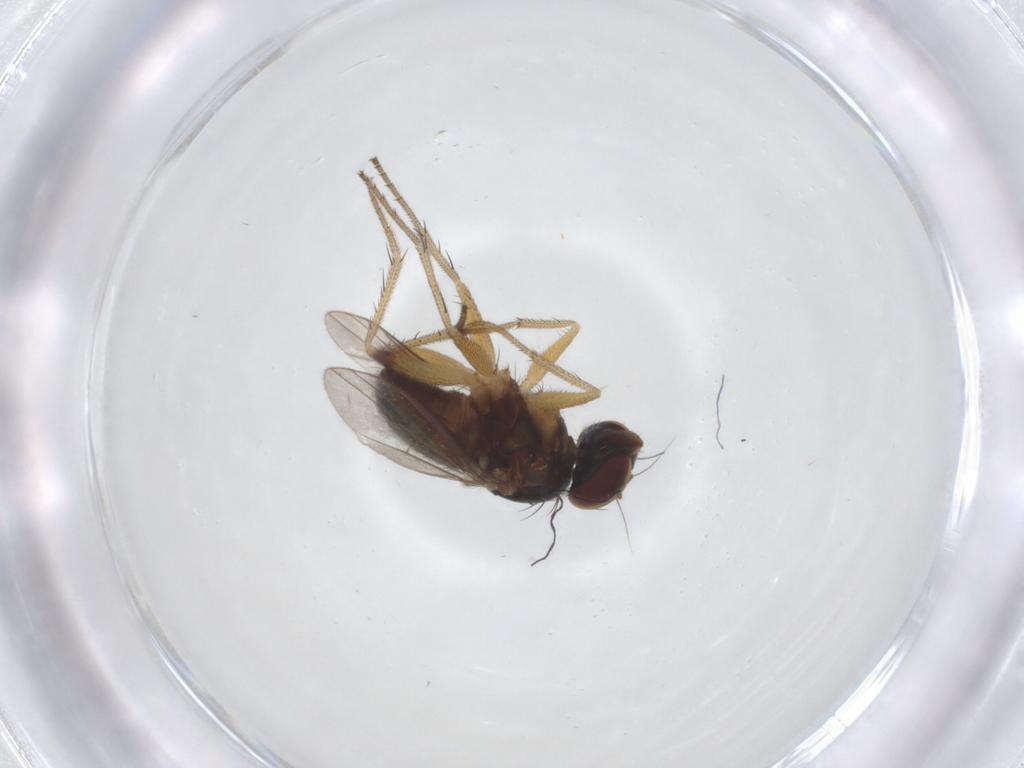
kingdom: Animalia
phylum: Arthropoda
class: Insecta
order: Diptera
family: Dolichopodidae
